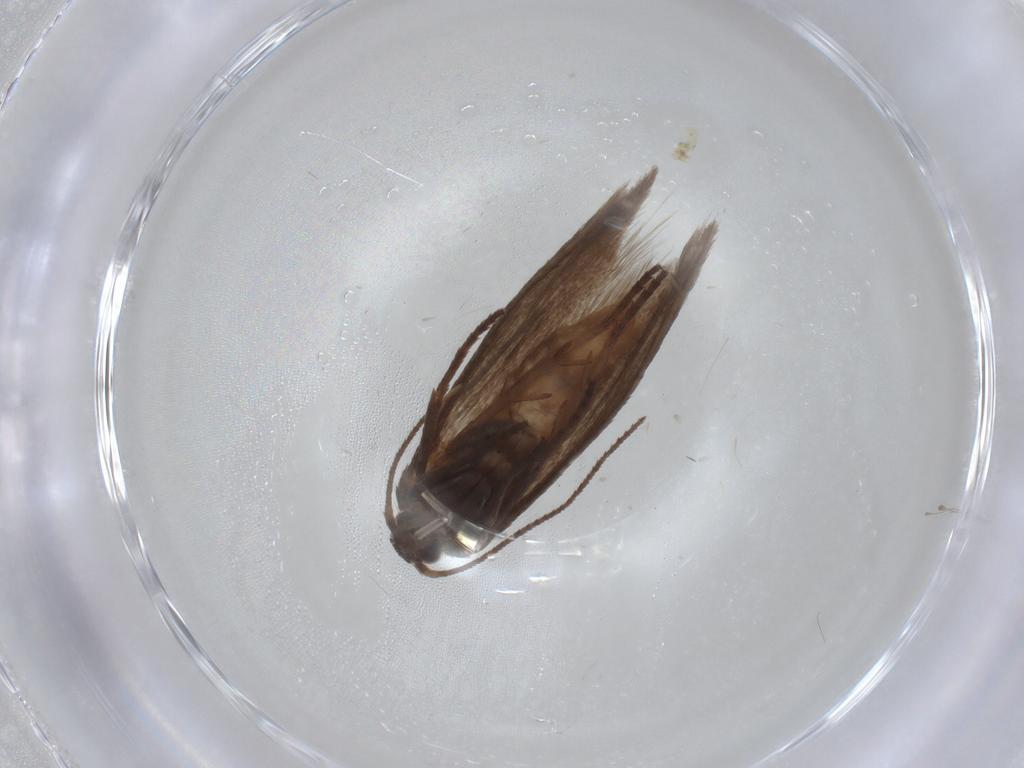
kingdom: Animalia
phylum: Arthropoda
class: Insecta
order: Lepidoptera
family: Limacodidae
